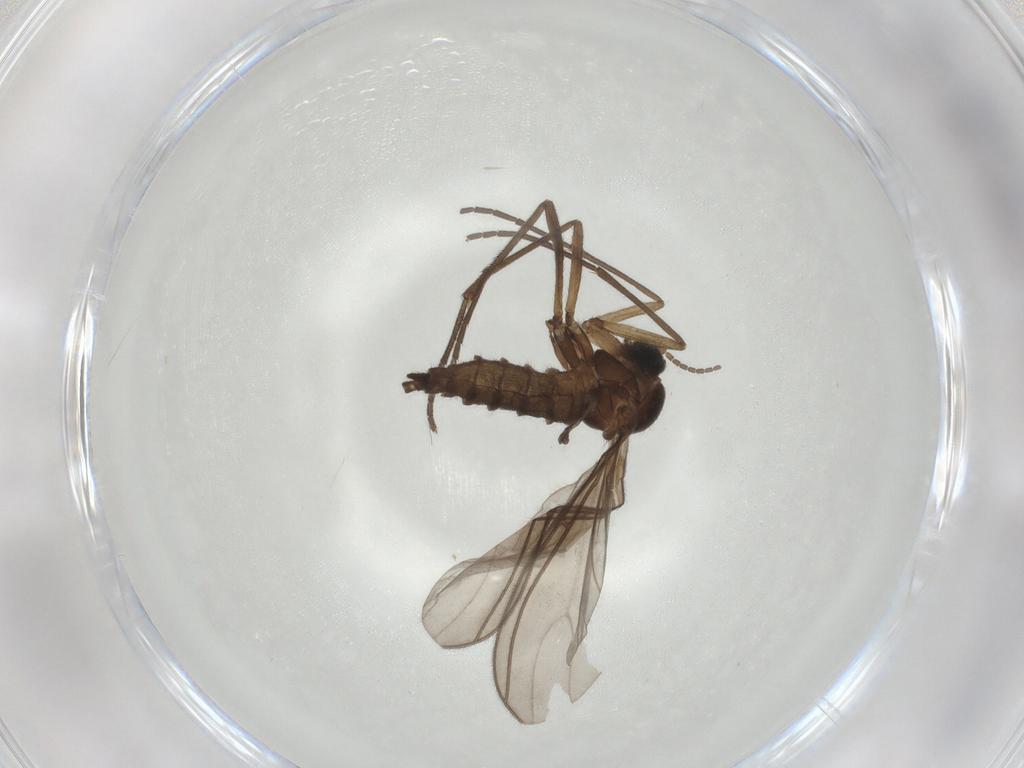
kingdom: Animalia
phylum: Arthropoda
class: Insecta
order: Diptera
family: Sciaridae
